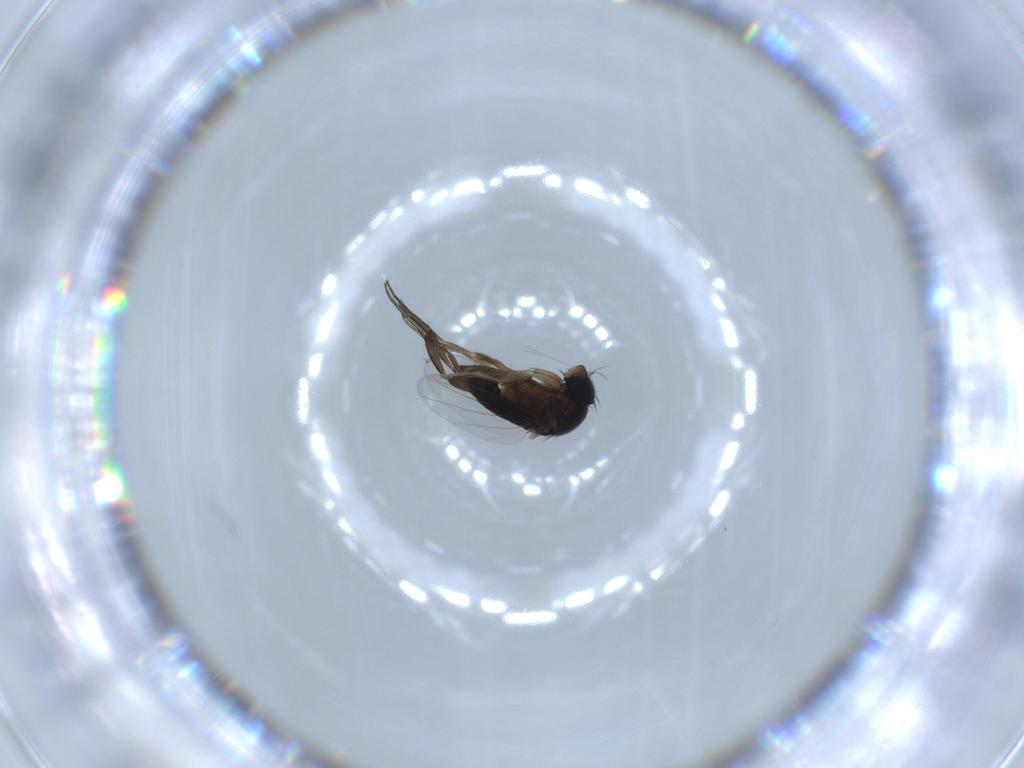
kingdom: Animalia
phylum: Arthropoda
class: Insecta
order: Diptera
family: Phoridae
